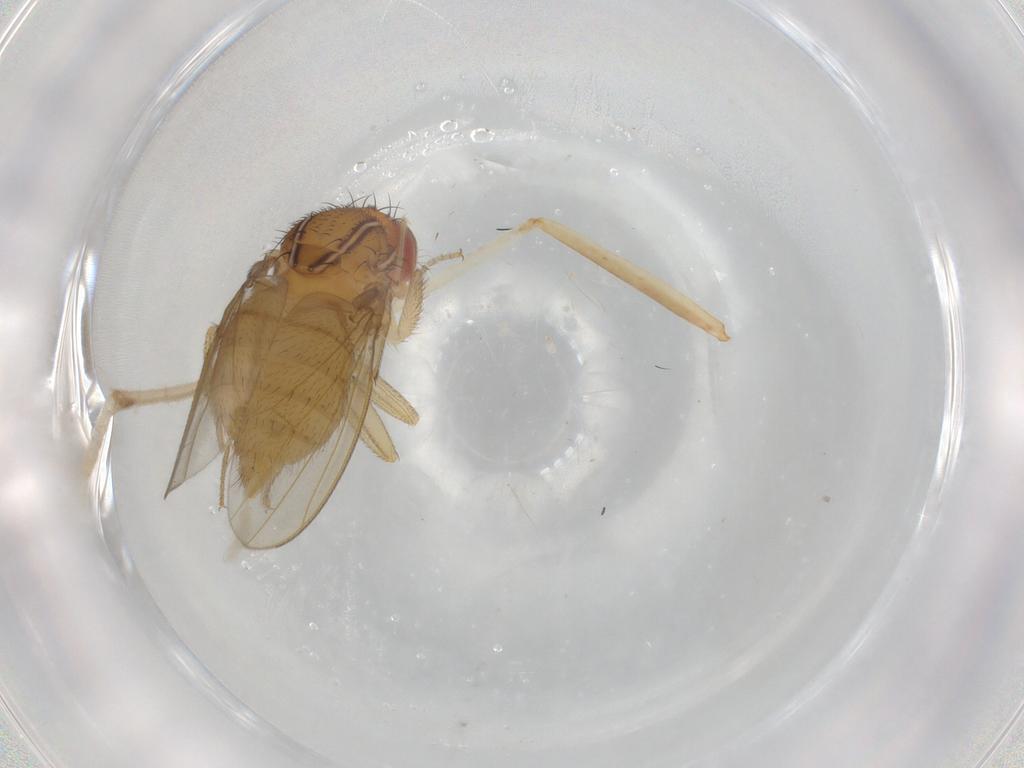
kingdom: Animalia
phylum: Arthropoda
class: Insecta
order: Diptera
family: Drosophilidae
